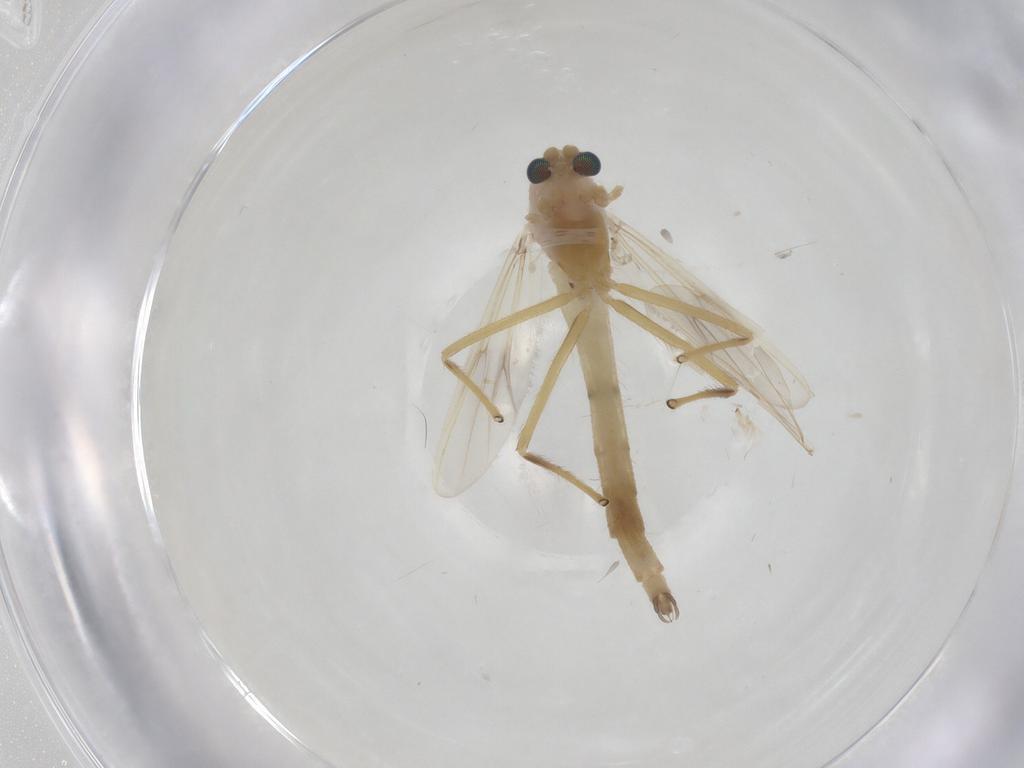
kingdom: Animalia
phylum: Arthropoda
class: Insecta
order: Diptera
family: Chironomidae
